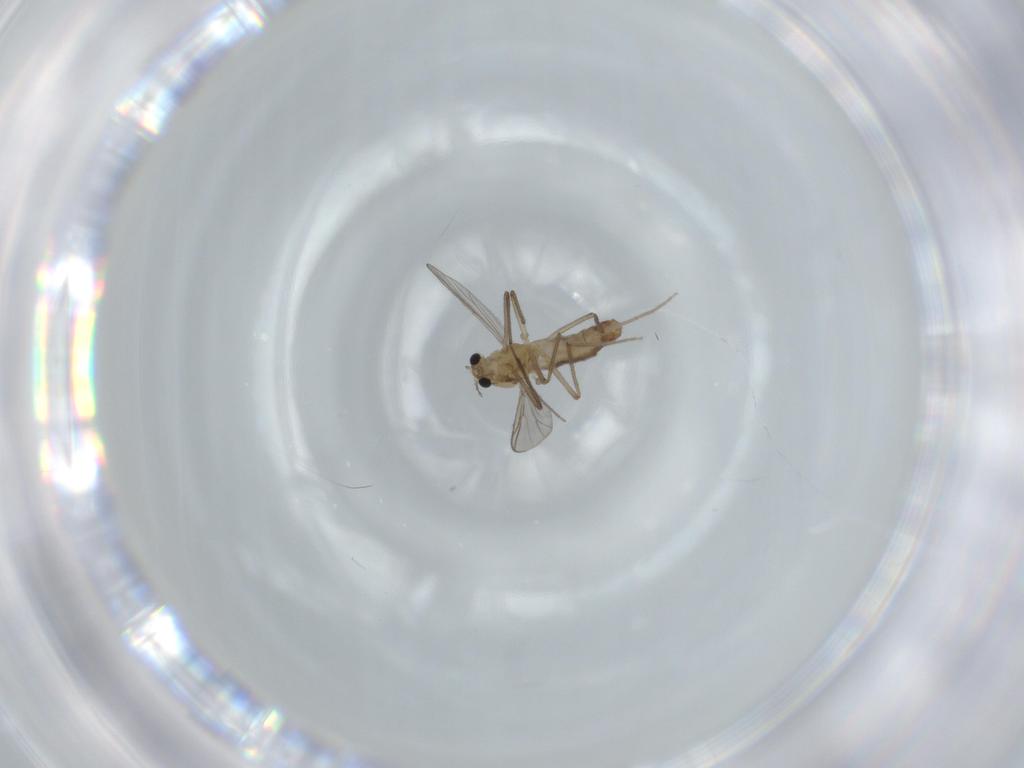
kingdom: Animalia
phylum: Arthropoda
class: Insecta
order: Diptera
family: Chironomidae
